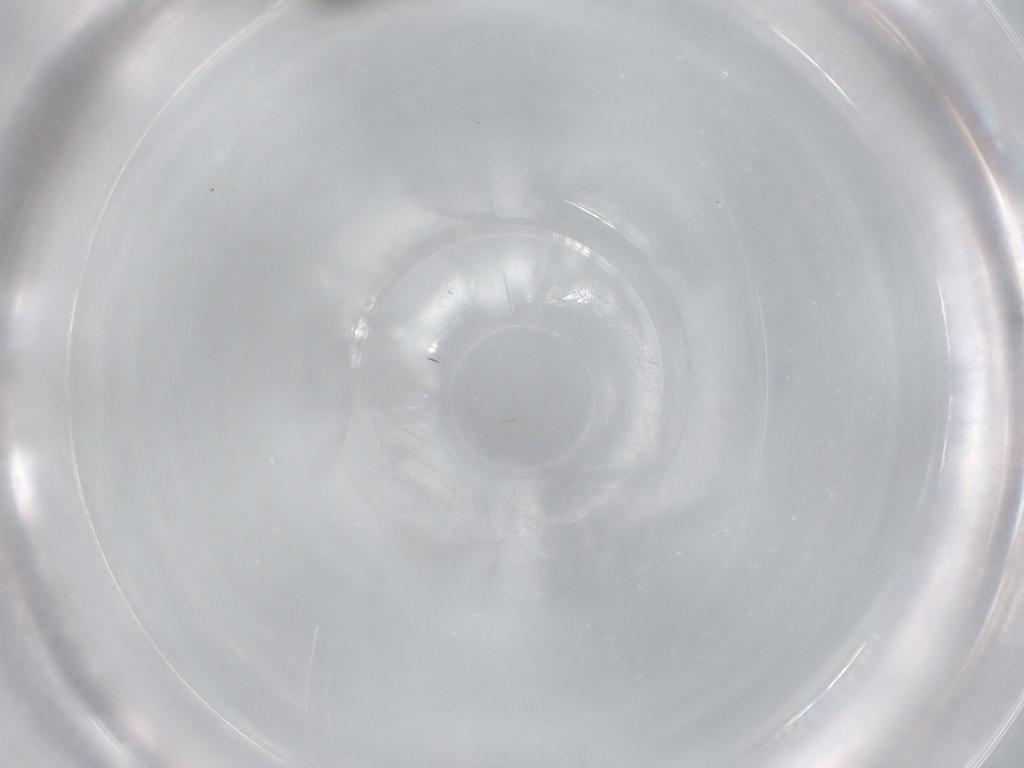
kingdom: Animalia
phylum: Arthropoda
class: Insecta
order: Hymenoptera
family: Scelionidae
